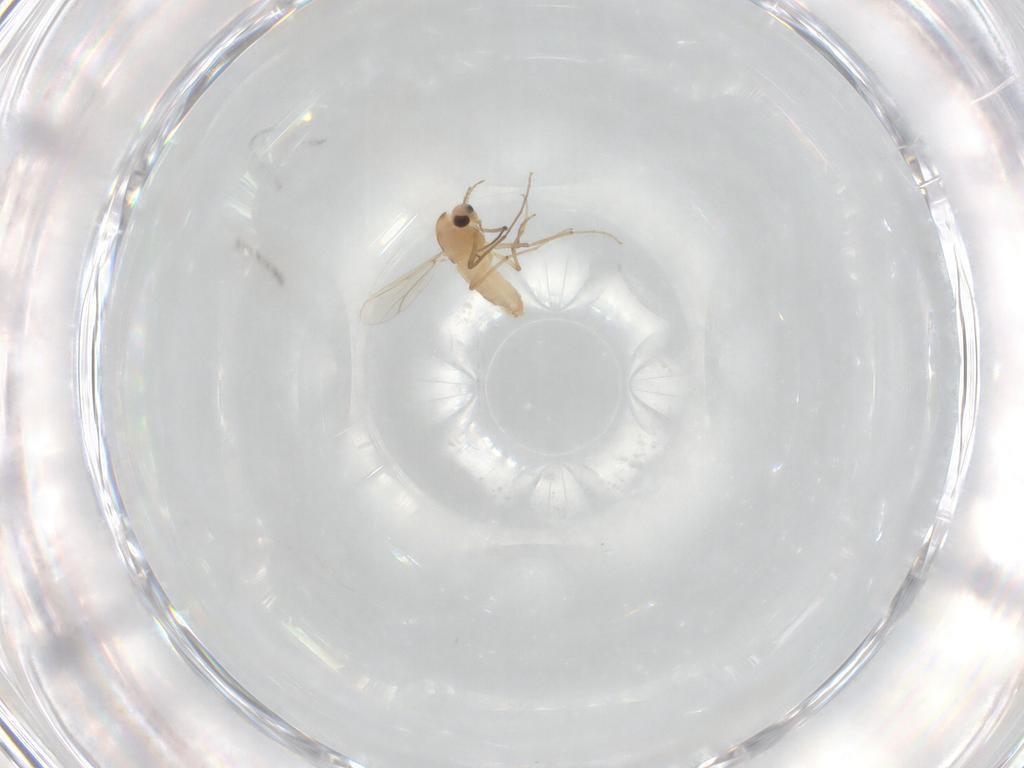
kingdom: Animalia
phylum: Arthropoda
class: Insecta
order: Diptera
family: Chironomidae
